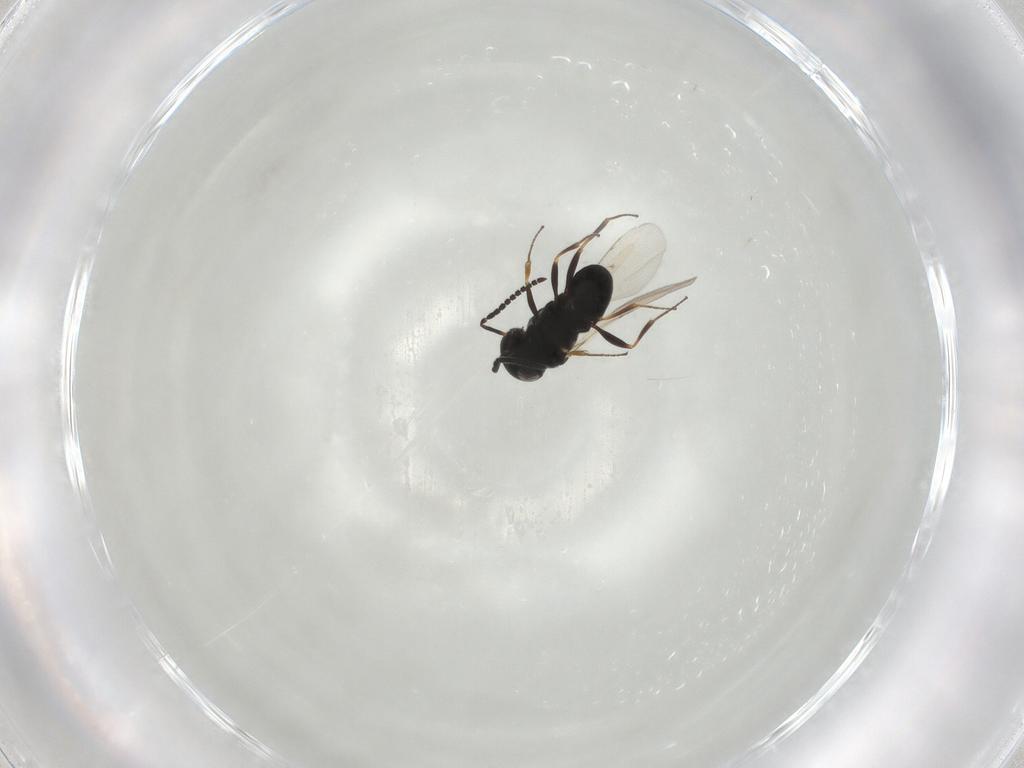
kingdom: Animalia
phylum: Arthropoda
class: Insecta
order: Hymenoptera
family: Scelionidae
